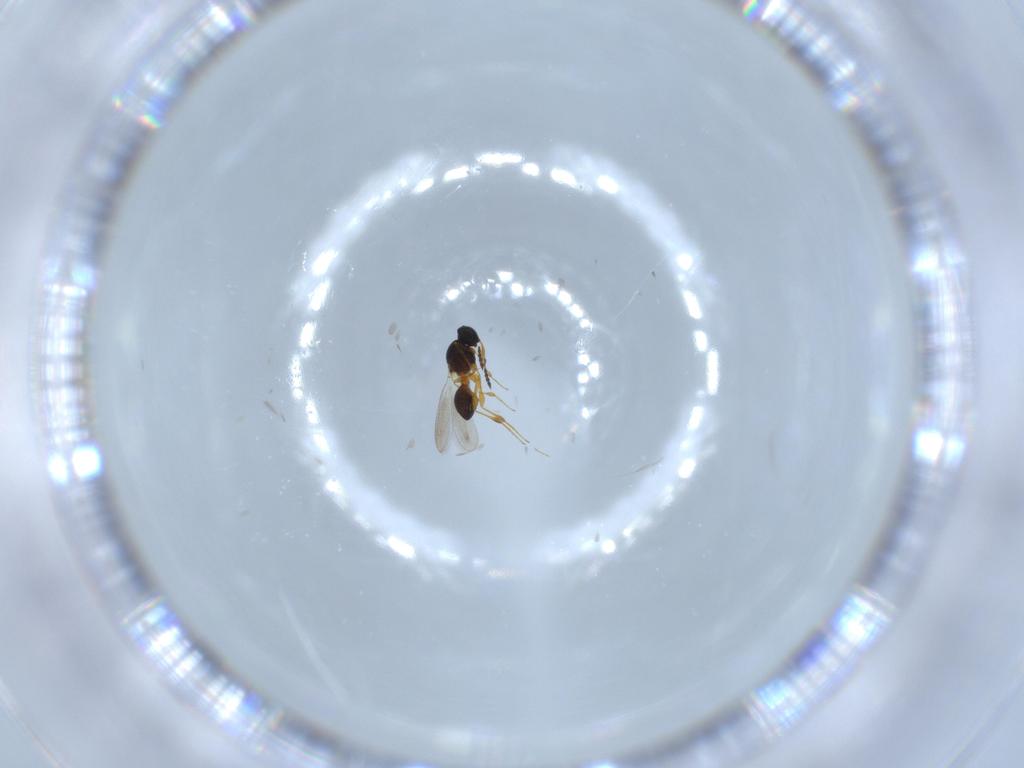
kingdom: Animalia
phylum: Arthropoda
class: Insecta
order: Hymenoptera
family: Platygastridae
